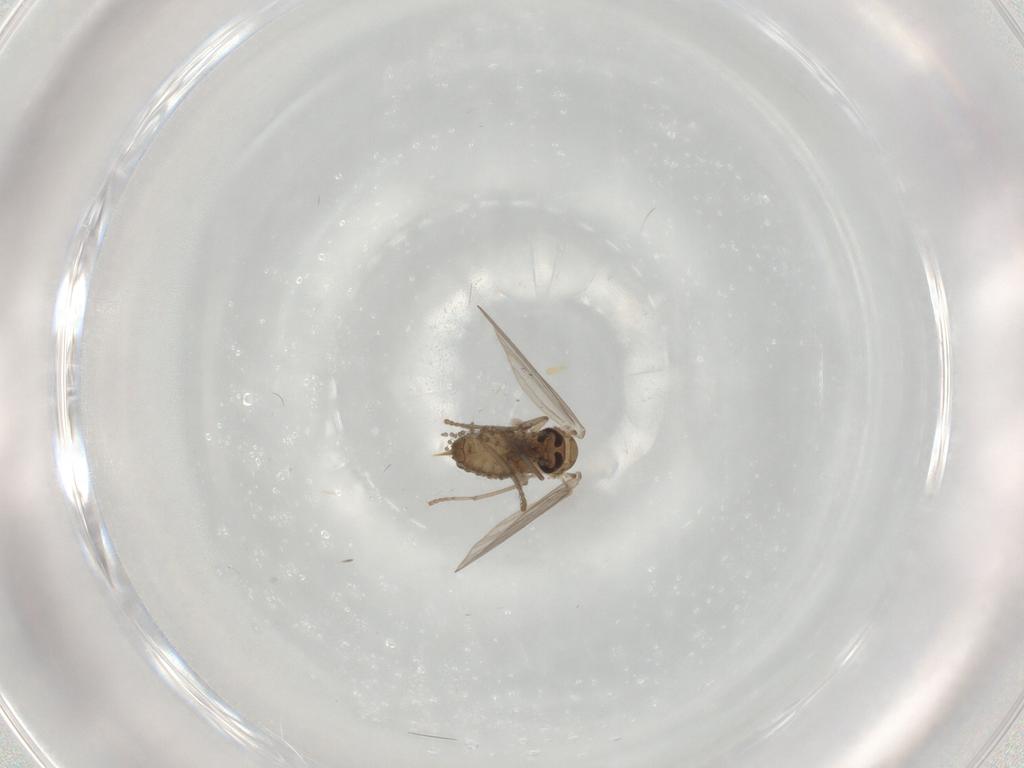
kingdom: Animalia
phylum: Arthropoda
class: Insecta
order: Diptera
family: Psychodidae
